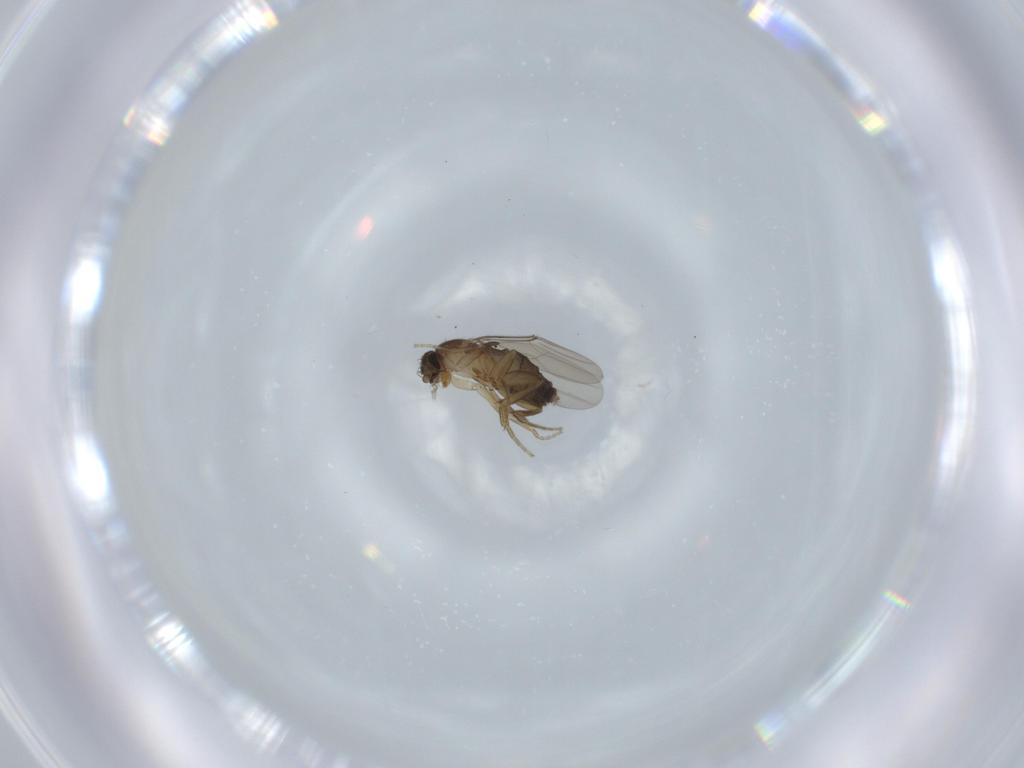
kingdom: Animalia
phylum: Arthropoda
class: Insecta
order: Diptera
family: Phoridae
